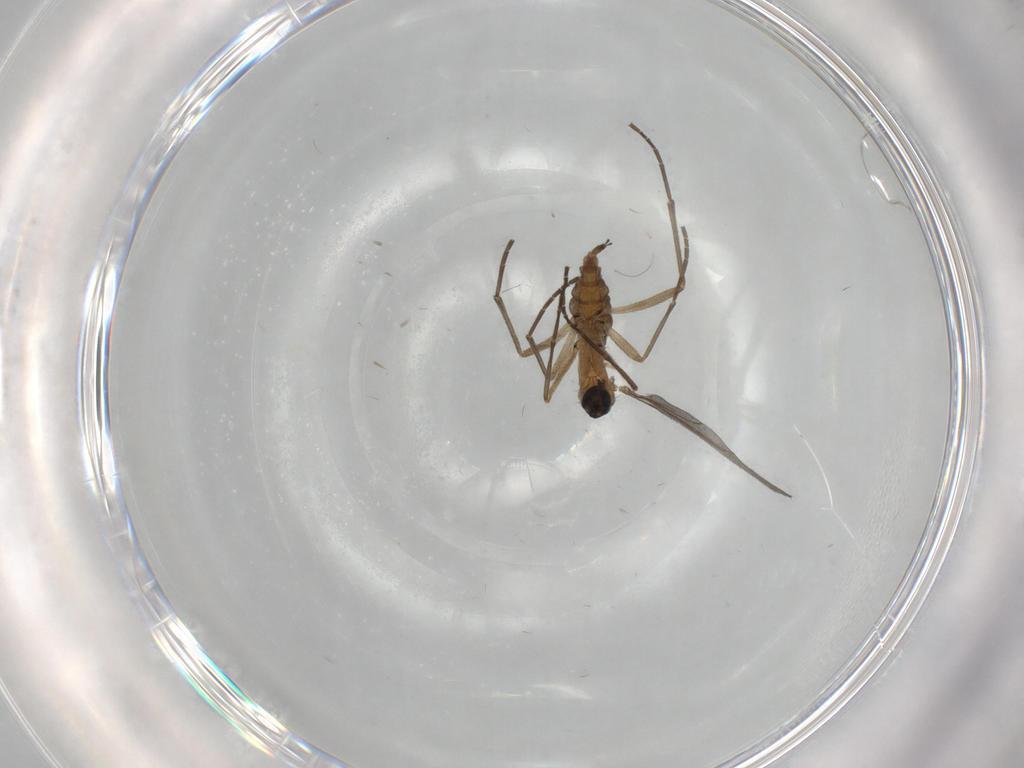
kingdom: Animalia
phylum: Arthropoda
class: Insecta
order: Diptera
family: Sciaridae
